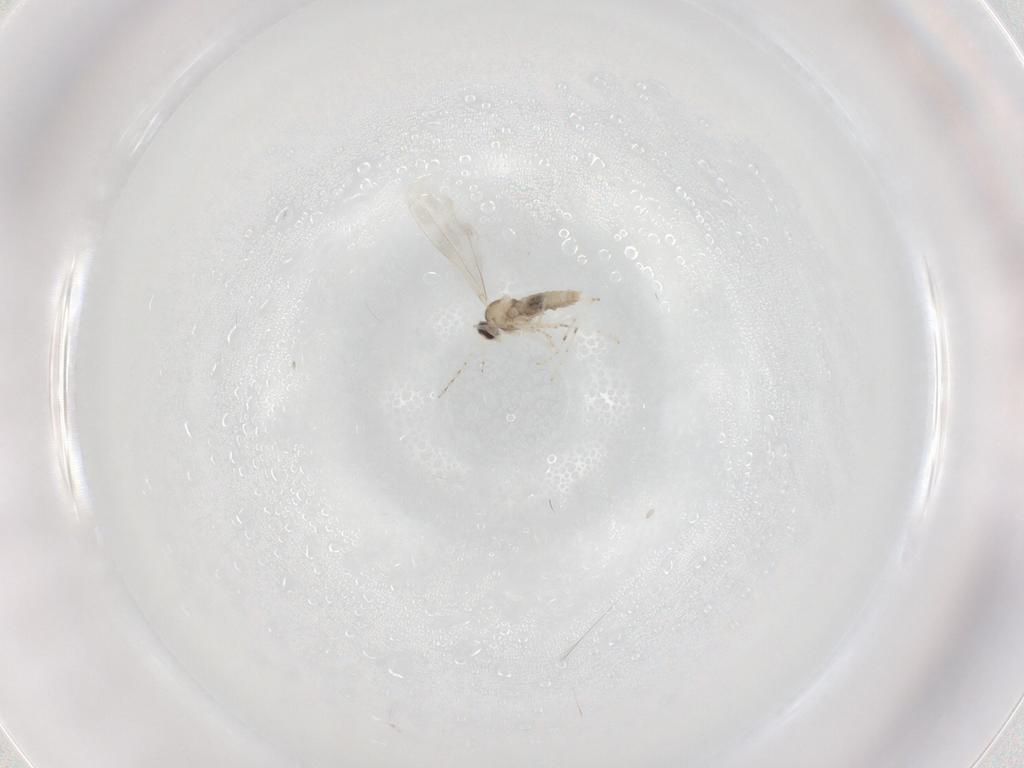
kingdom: Animalia
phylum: Arthropoda
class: Insecta
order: Diptera
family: Cecidomyiidae
